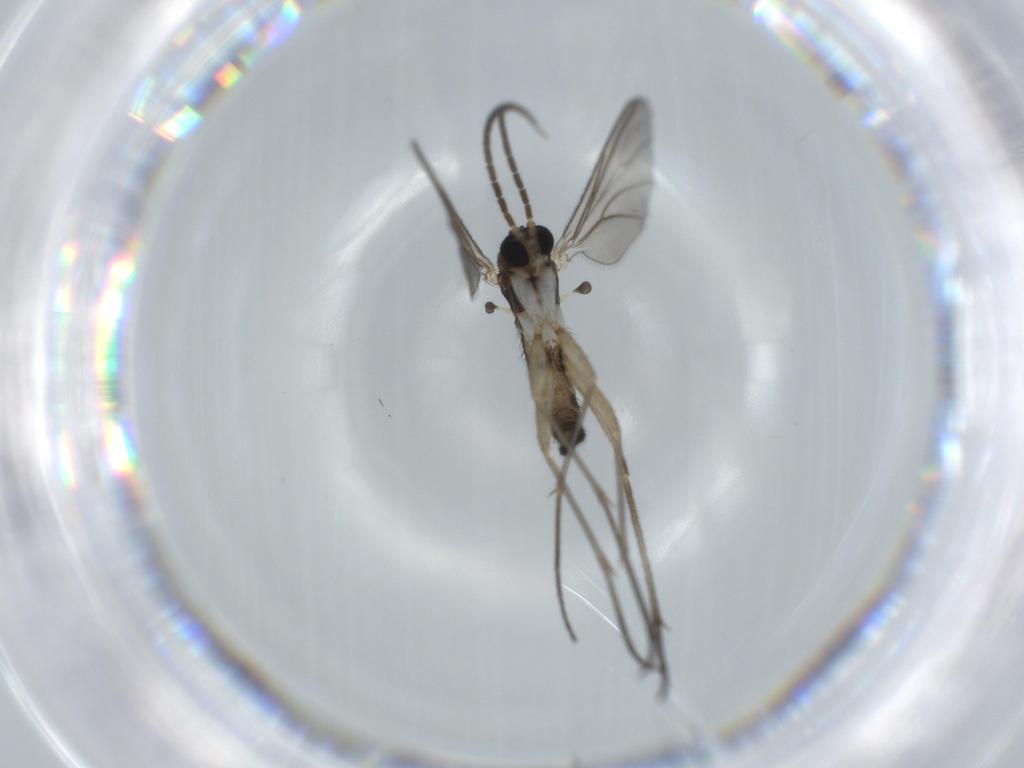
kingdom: Animalia
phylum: Arthropoda
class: Insecta
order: Diptera
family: Sciaridae
